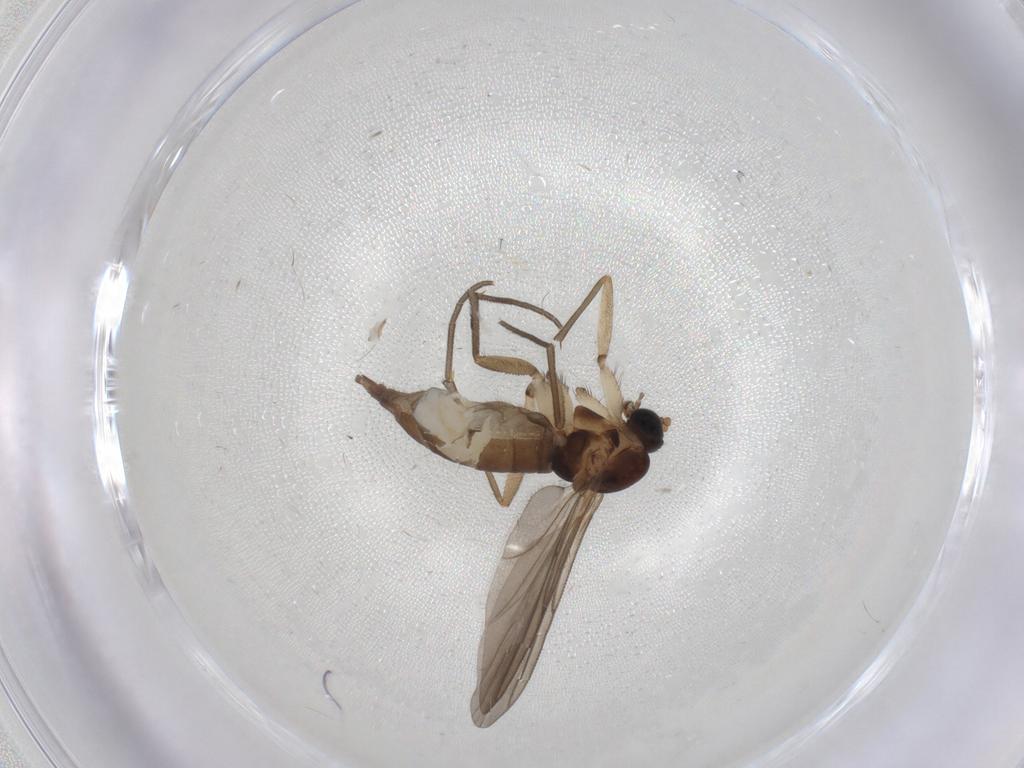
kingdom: Animalia
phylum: Arthropoda
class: Insecta
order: Diptera
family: Sciaridae
